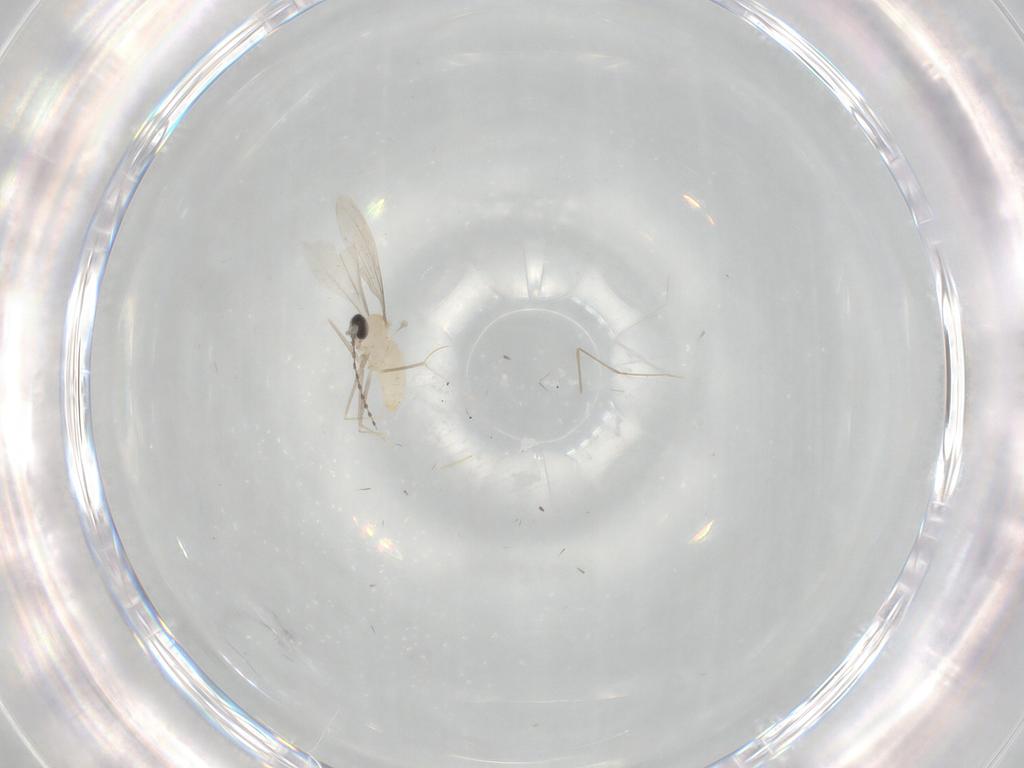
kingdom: Animalia
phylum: Arthropoda
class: Insecta
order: Diptera
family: Cecidomyiidae
